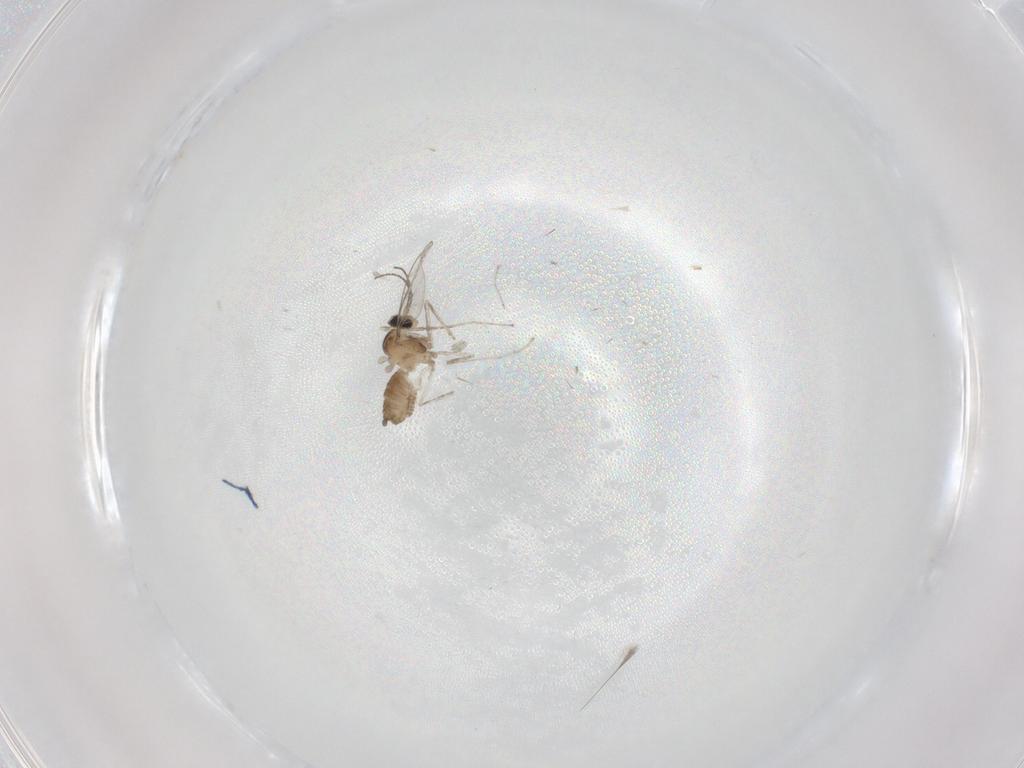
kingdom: Animalia
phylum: Arthropoda
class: Insecta
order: Diptera
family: Cecidomyiidae
